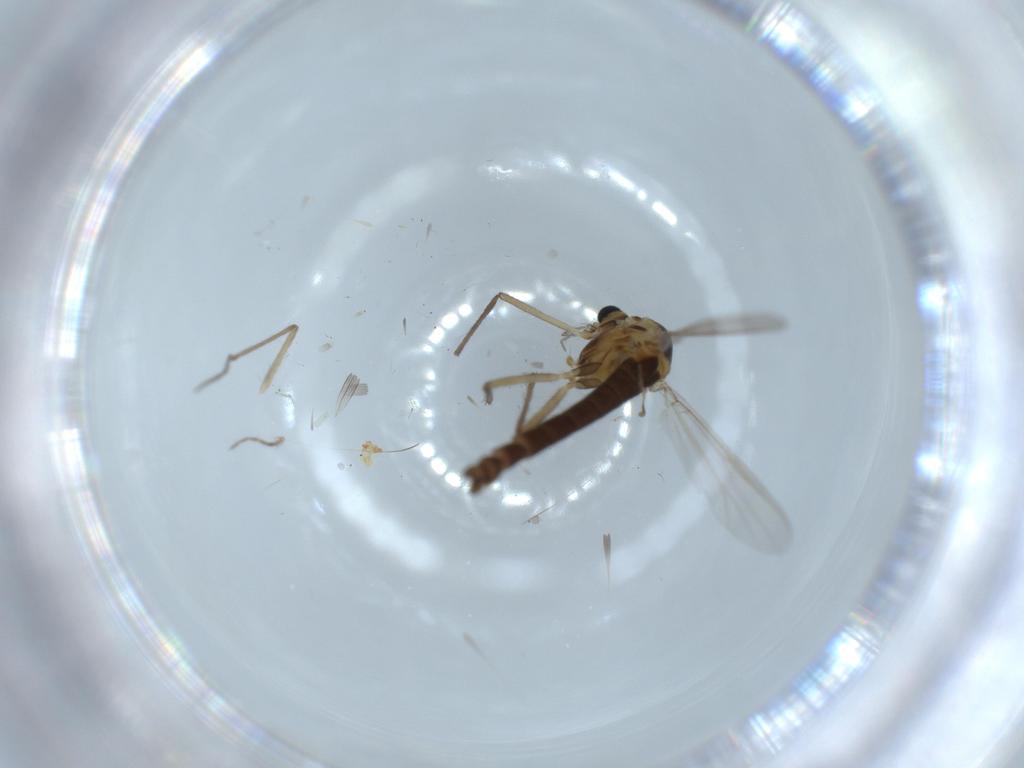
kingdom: Animalia
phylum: Arthropoda
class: Insecta
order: Diptera
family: Chironomidae
